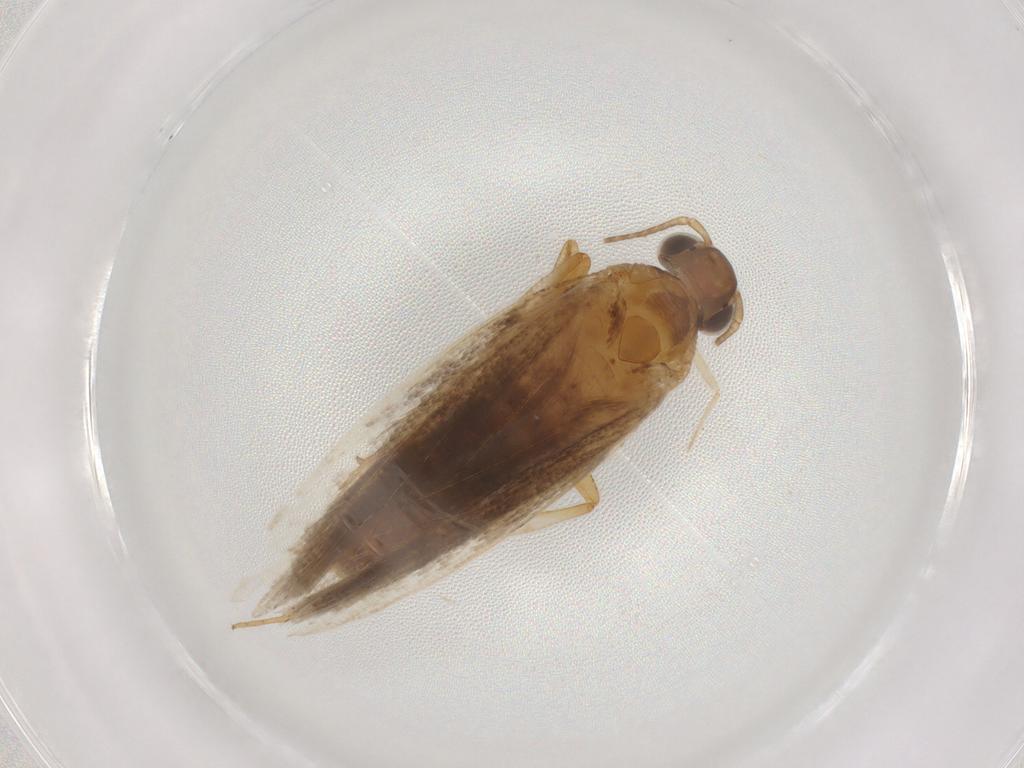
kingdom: Animalia
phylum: Arthropoda
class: Insecta
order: Lepidoptera
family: Gelechiidae
